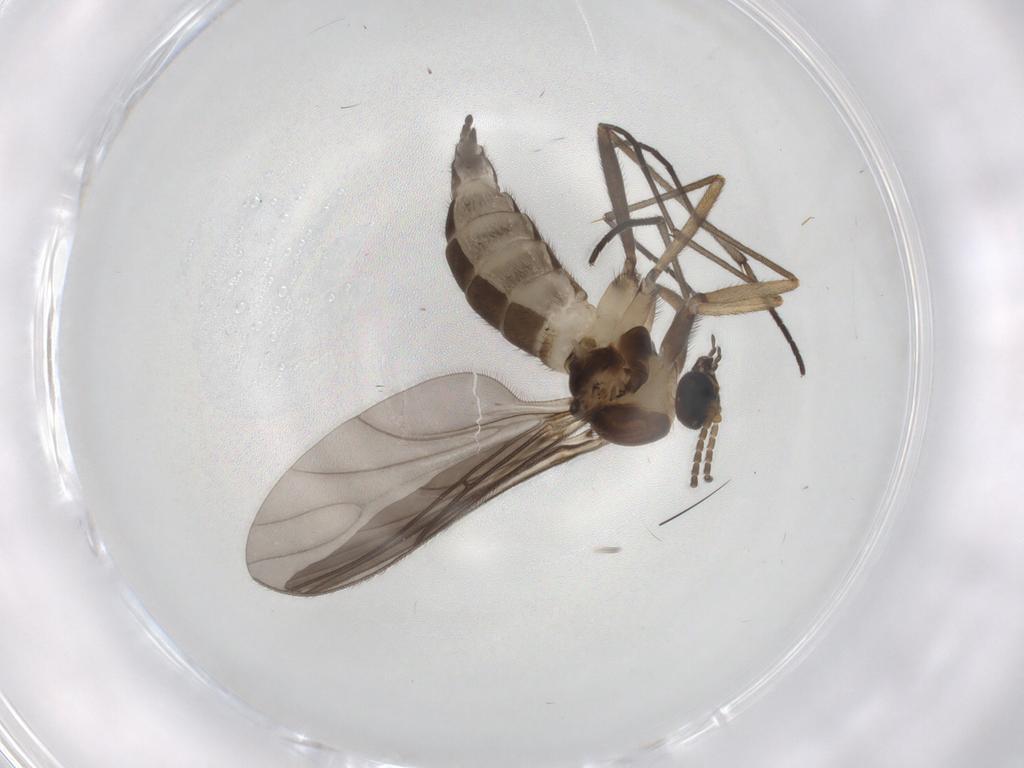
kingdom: Animalia
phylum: Arthropoda
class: Insecta
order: Diptera
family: Sciaridae
